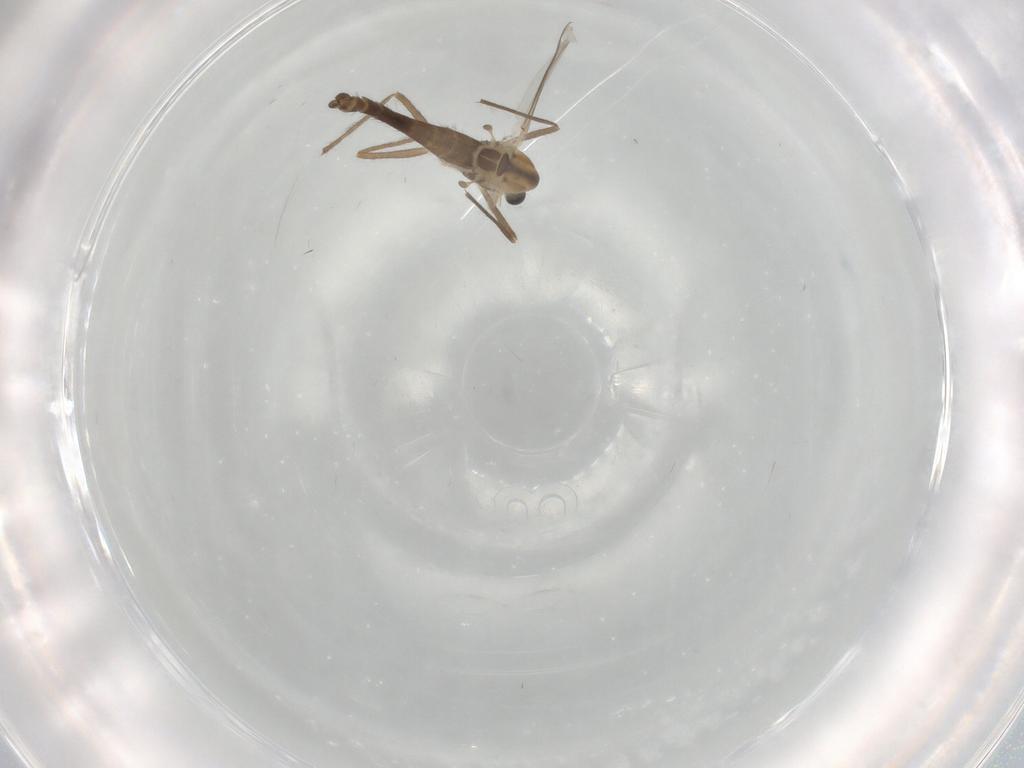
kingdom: Animalia
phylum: Arthropoda
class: Insecta
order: Diptera
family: Chironomidae
